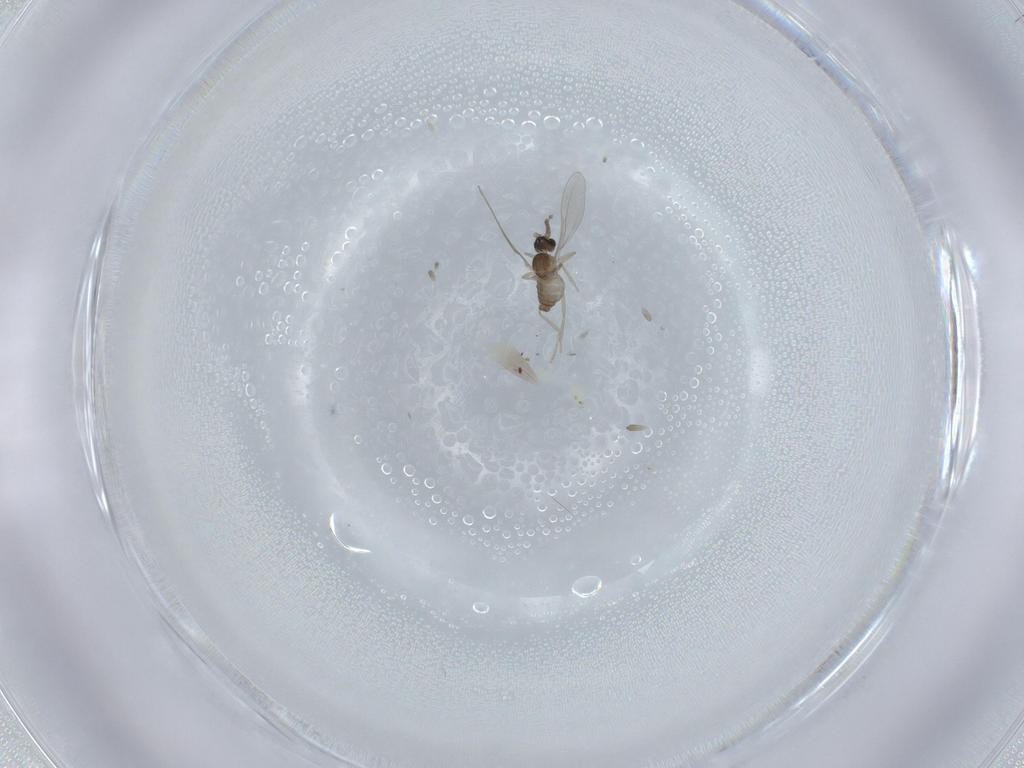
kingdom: Animalia
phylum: Arthropoda
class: Insecta
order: Diptera
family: Cecidomyiidae
